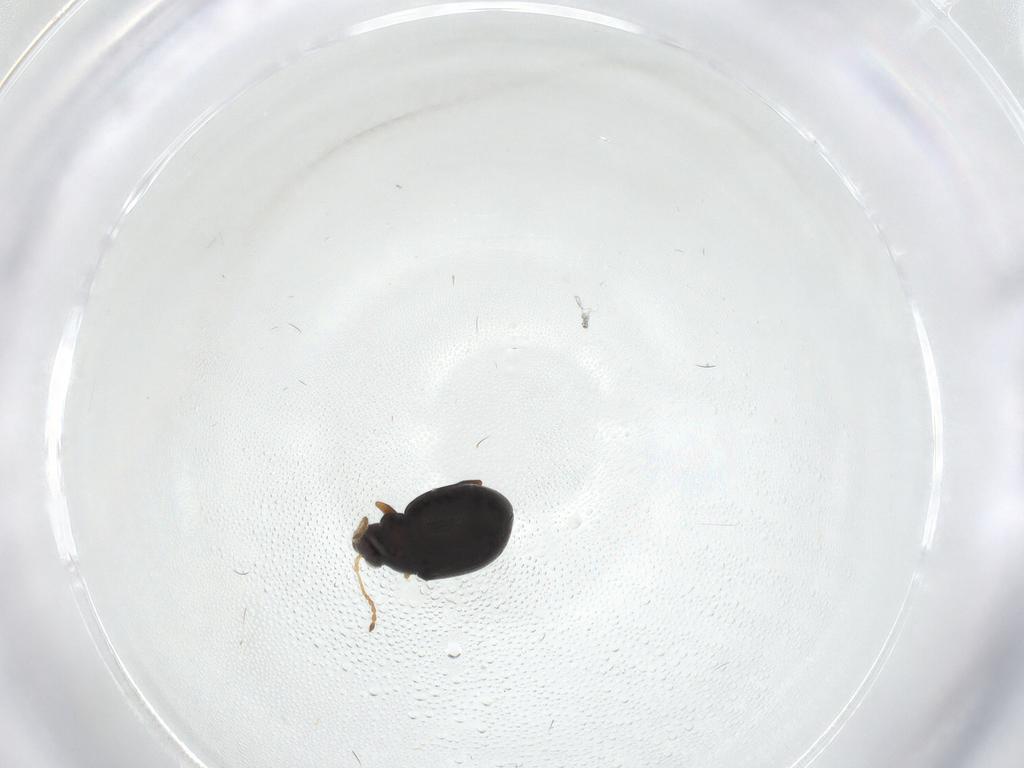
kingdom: Animalia
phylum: Arthropoda
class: Insecta
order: Coleoptera
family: Chrysomelidae
